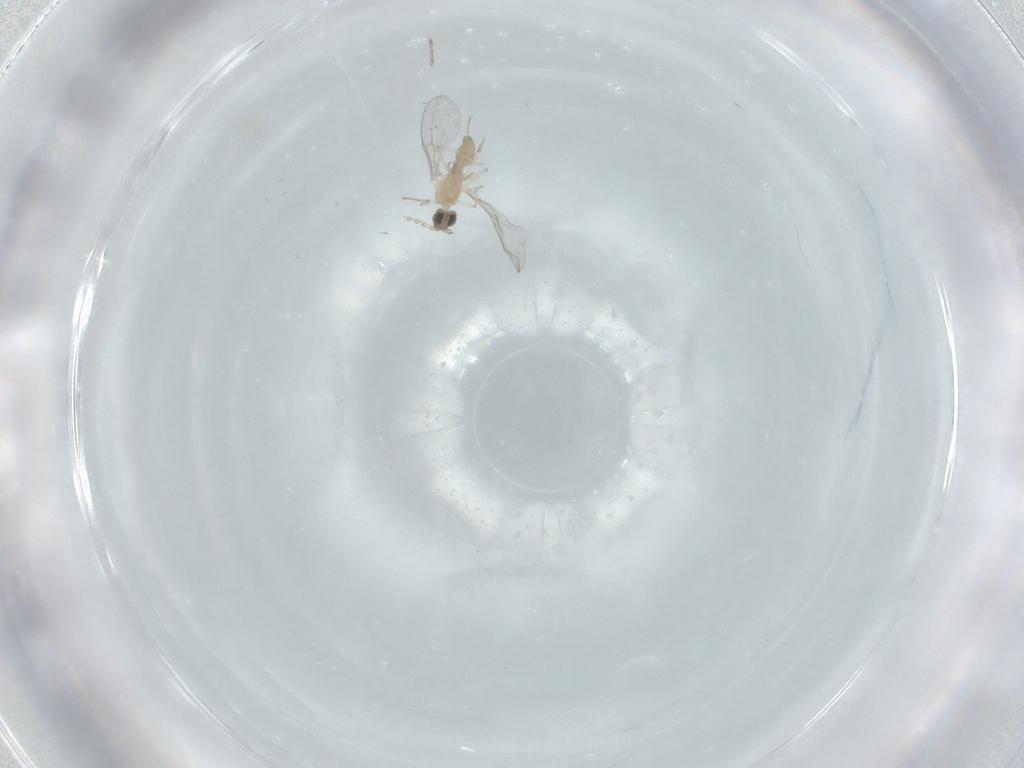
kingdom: Animalia
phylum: Arthropoda
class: Insecta
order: Diptera
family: Cecidomyiidae
